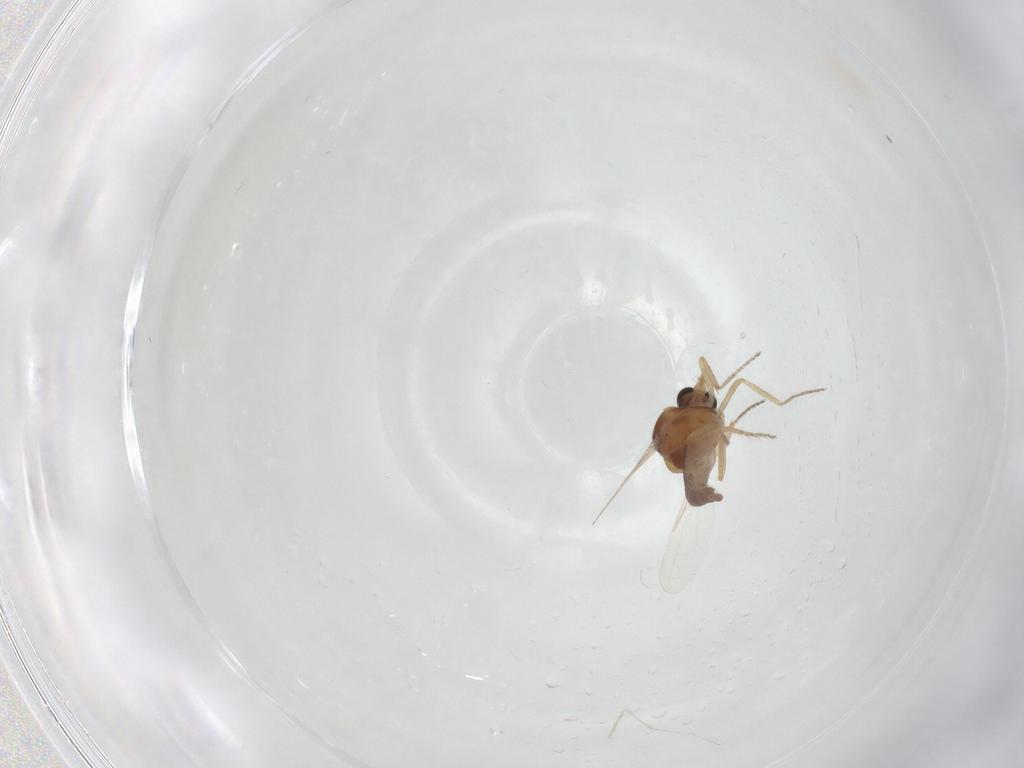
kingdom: Animalia
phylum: Arthropoda
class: Insecta
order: Diptera
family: Ceratopogonidae
